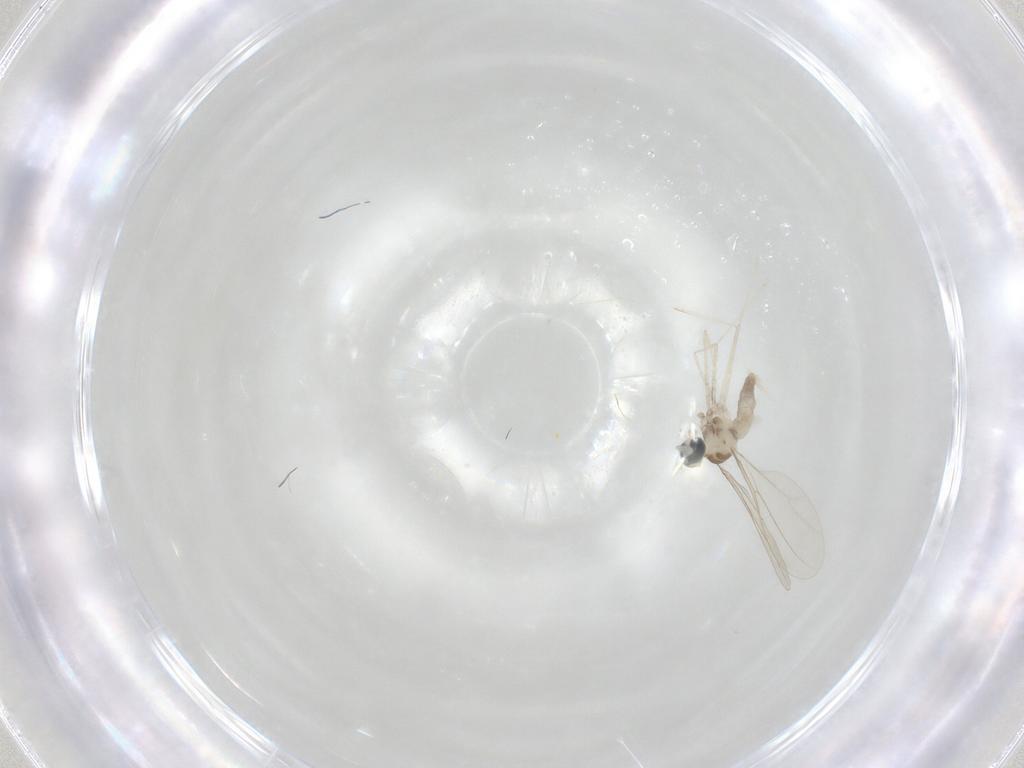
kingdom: Animalia
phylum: Arthropoda
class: Insecta
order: Diptera
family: Cecidomyiidae
